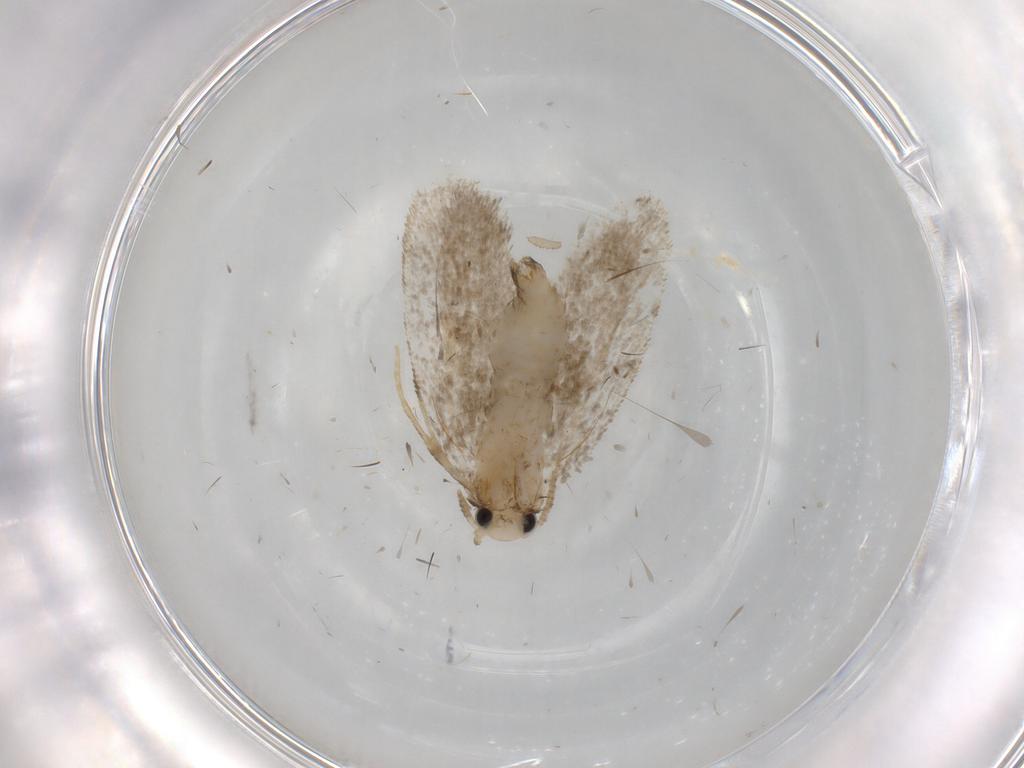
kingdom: Animalia
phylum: Arthropoda
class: Insecta
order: Lepidoptera
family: Psychidae
